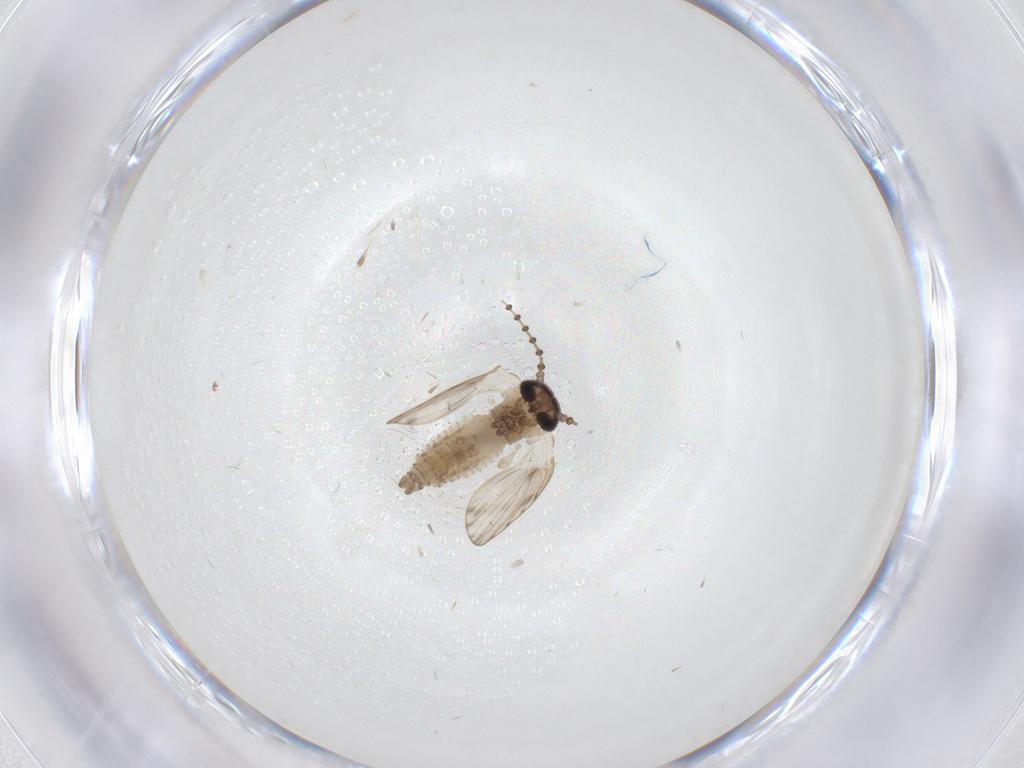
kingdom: Animalia
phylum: Arthropoda
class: Insecta
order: Diptera
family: Psychodidae
